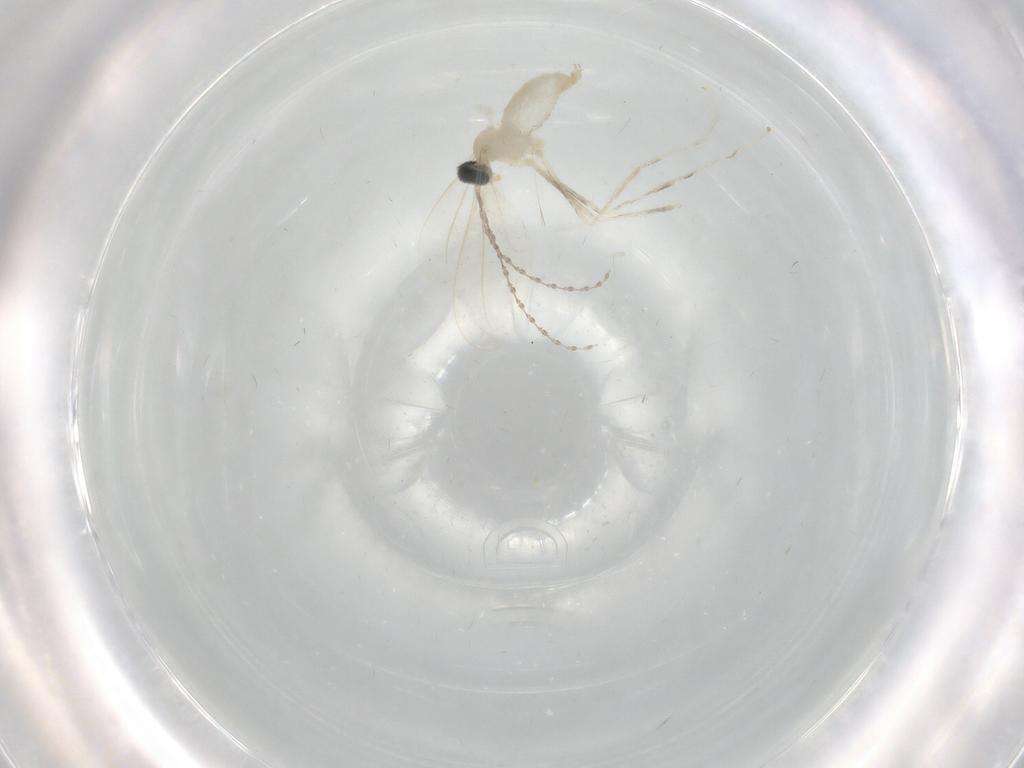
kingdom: Animalia
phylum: Arthropoda
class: Insecta
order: Diptera
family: Cecidomyiidae
